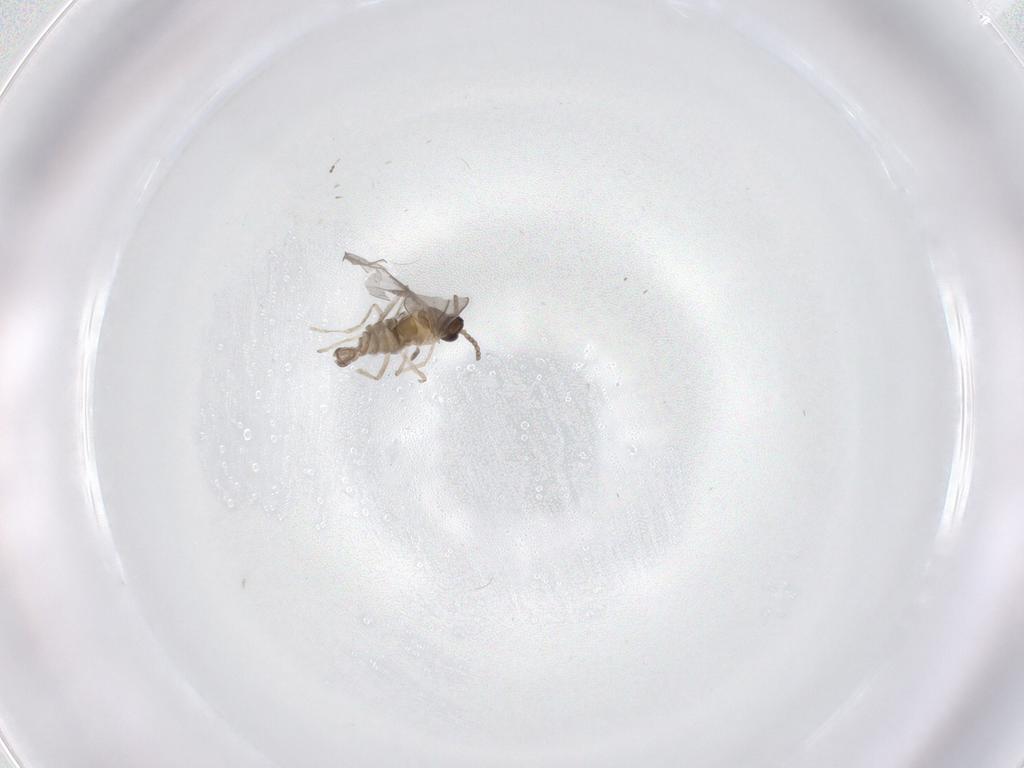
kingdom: Animalia
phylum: Arthropoda
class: Insecta
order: Diptera
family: Cecidomyiidae
